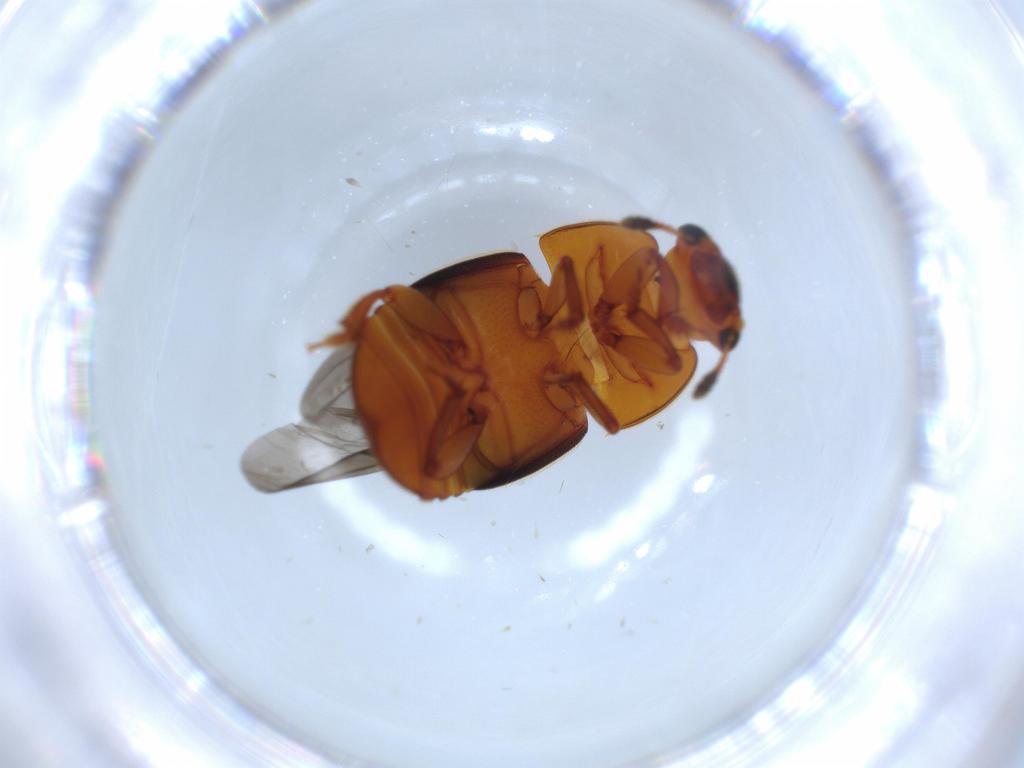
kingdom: Animalia
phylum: Arthropoda
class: Insecta
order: Coleoptera
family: Nitidulidae
